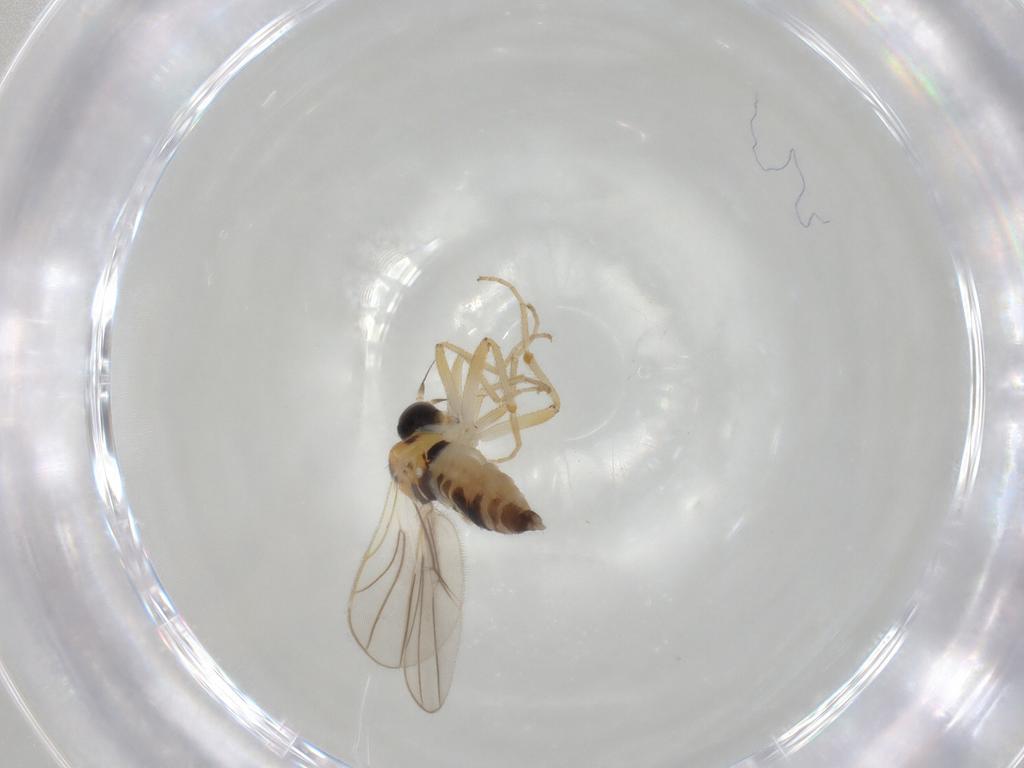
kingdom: Animalia
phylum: Arthropoda
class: Insecta
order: Diptera
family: Hybotidae
